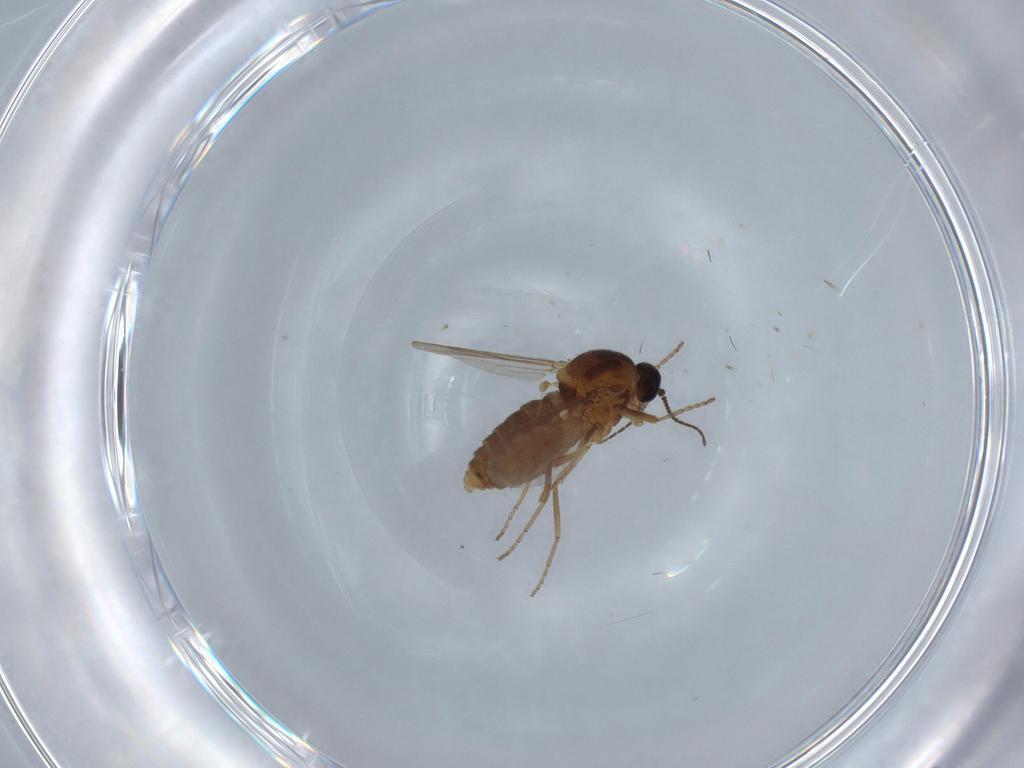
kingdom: Animalia
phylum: Arthropoda
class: Insecta
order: Diptera
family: Ceratopogonidae
